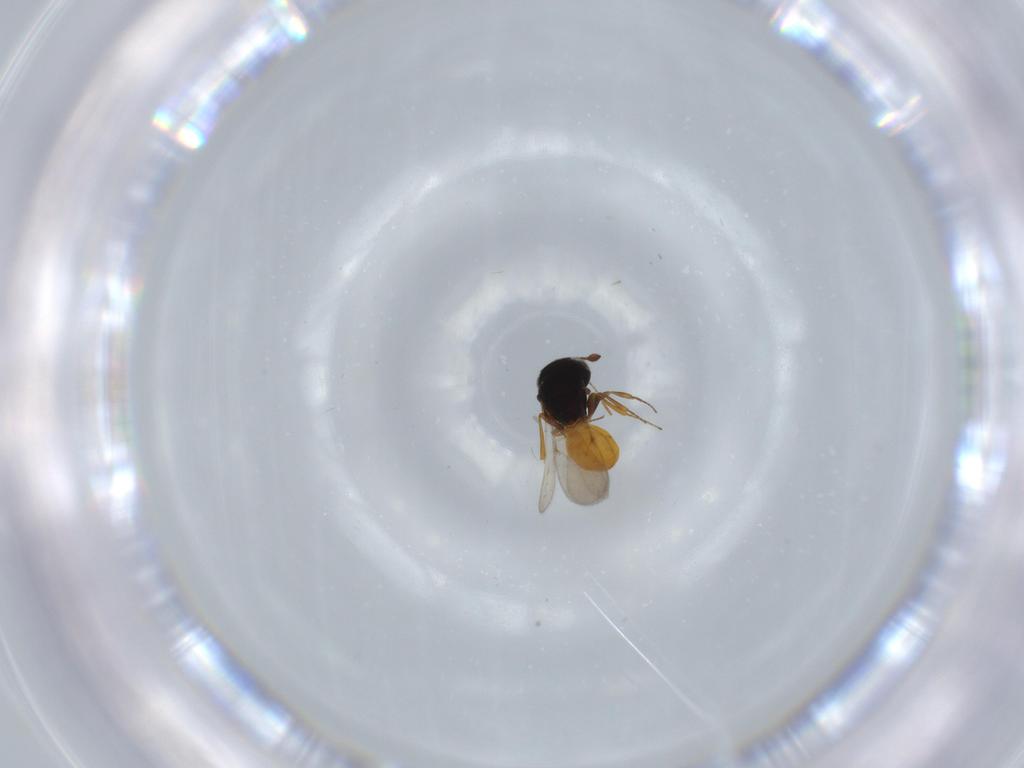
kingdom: Animalia
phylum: Arthropoda
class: Insecta
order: Hymenoptera
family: Scelionidae
